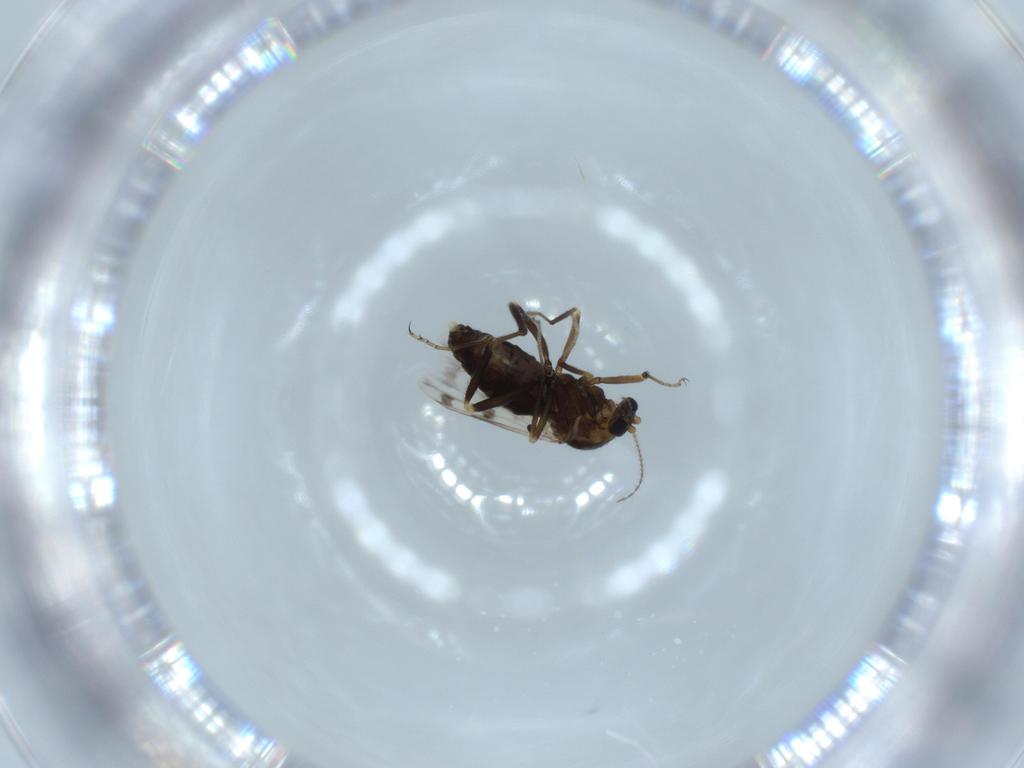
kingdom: Animalia
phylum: Arthropoda
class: Insecta
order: Diptera
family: Ceratopogonidae
